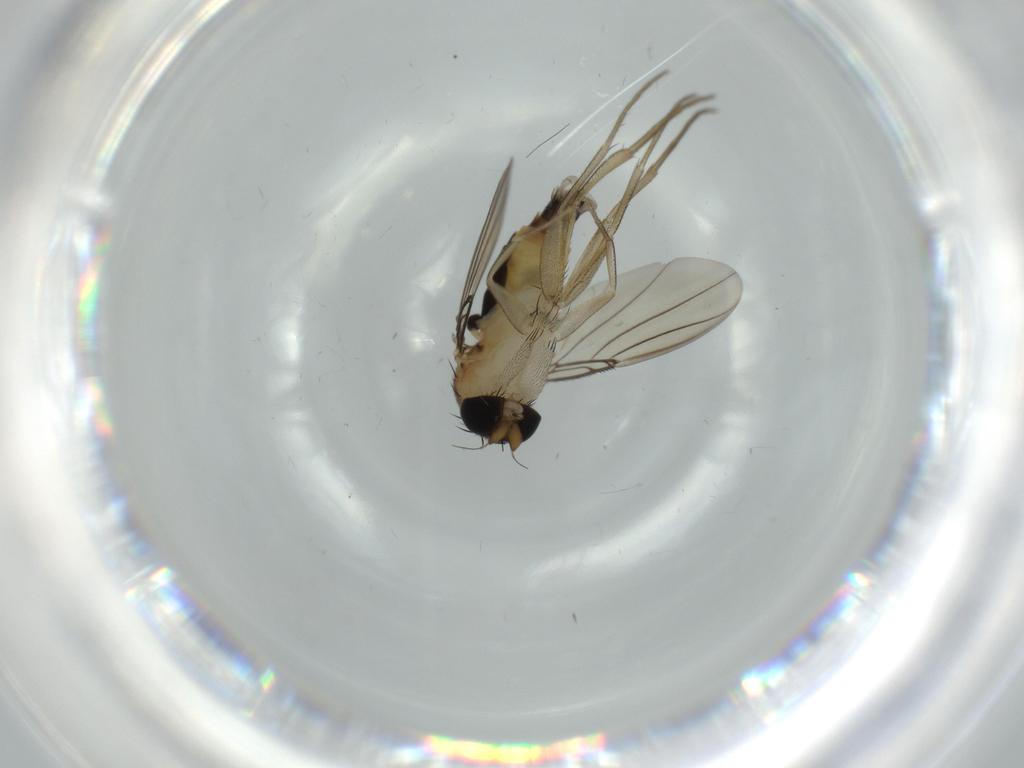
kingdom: Animalia
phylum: Arthropoda
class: Insecta
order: Diptera
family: Phoridae
